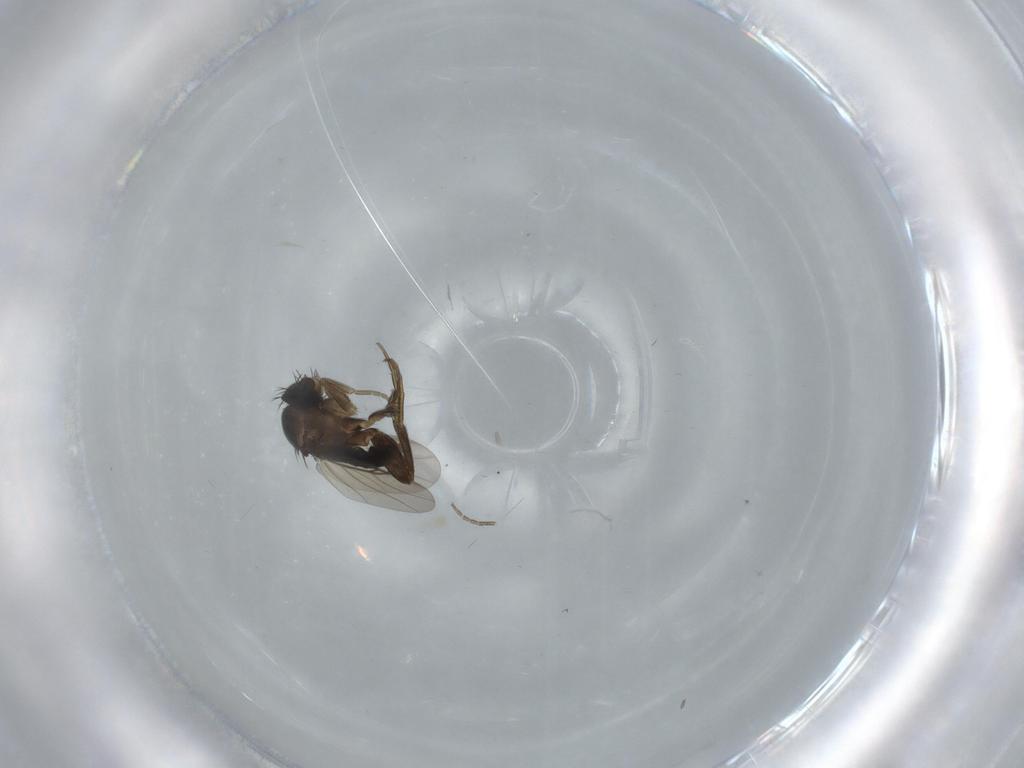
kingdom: Animalia
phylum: Arthropoda
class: Insecta
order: Diptera
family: Phoridae
